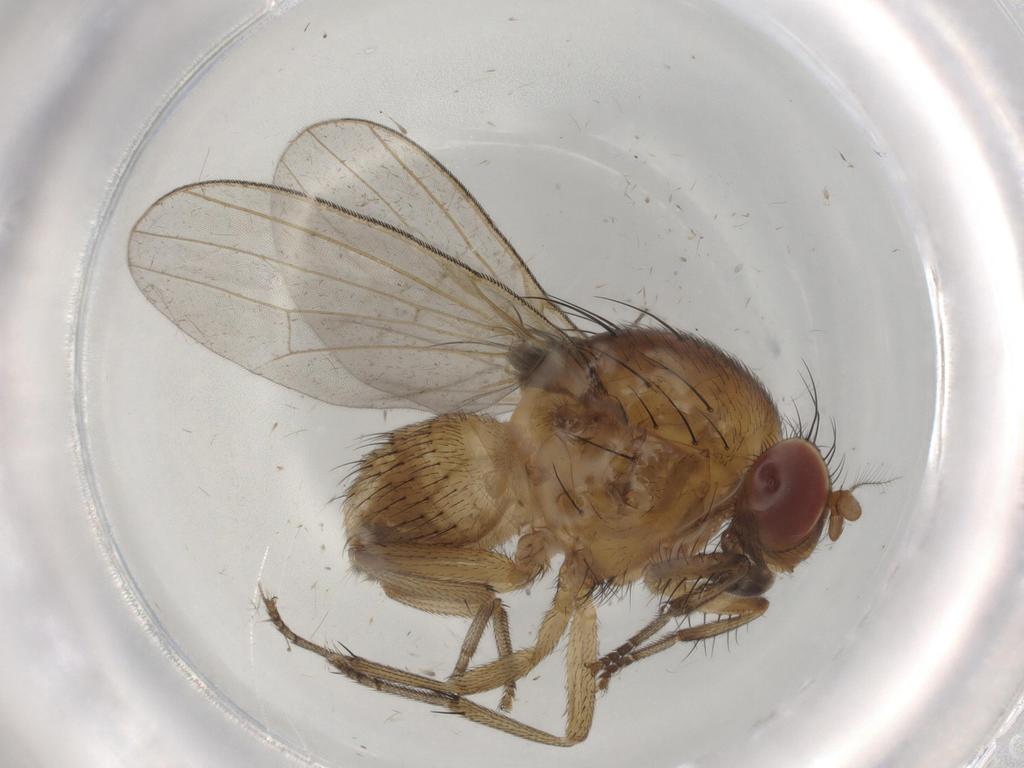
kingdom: Animalia
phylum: Arthropoda
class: Insecta
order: Diptera
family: Sciaridae
